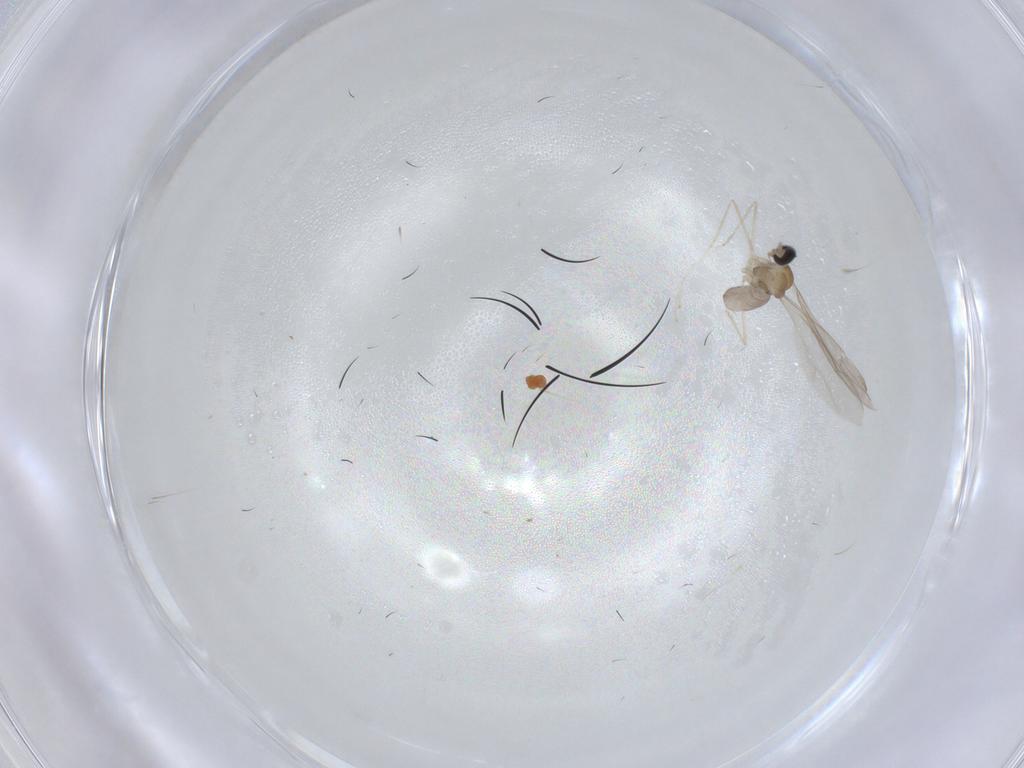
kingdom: Animalia
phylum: Arthropoda
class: Insecta
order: Diptera
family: Cecidomyiidae
